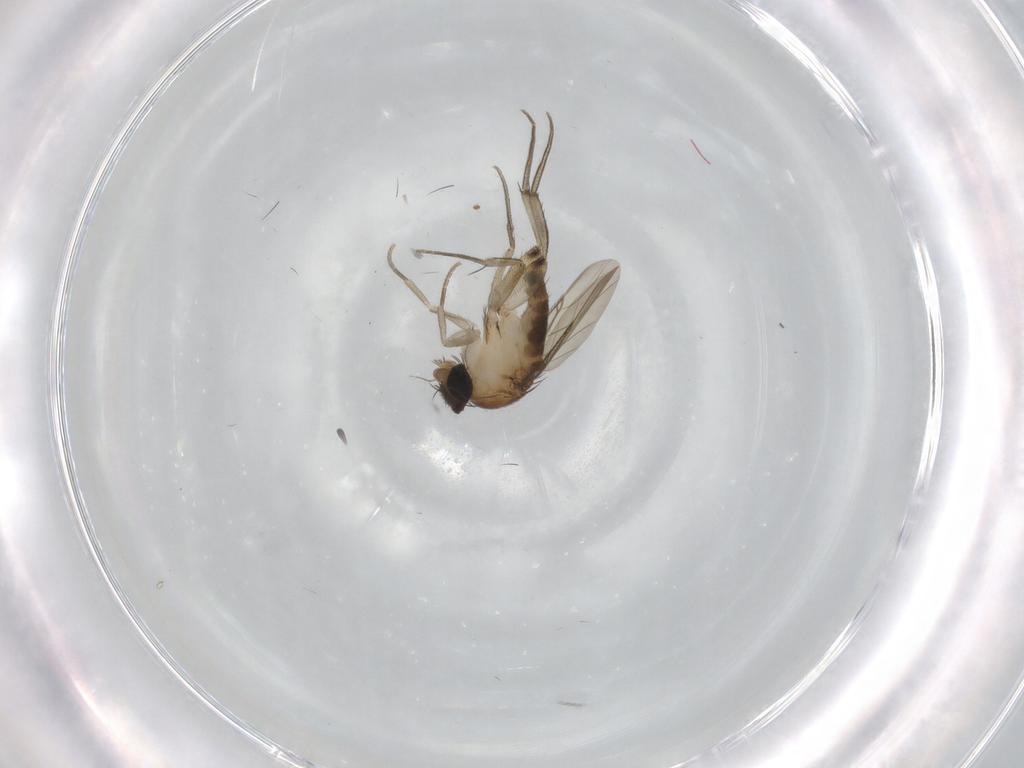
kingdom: Animalia
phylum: Arthropoda
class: Insecta
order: Diptera
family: Phoridae
